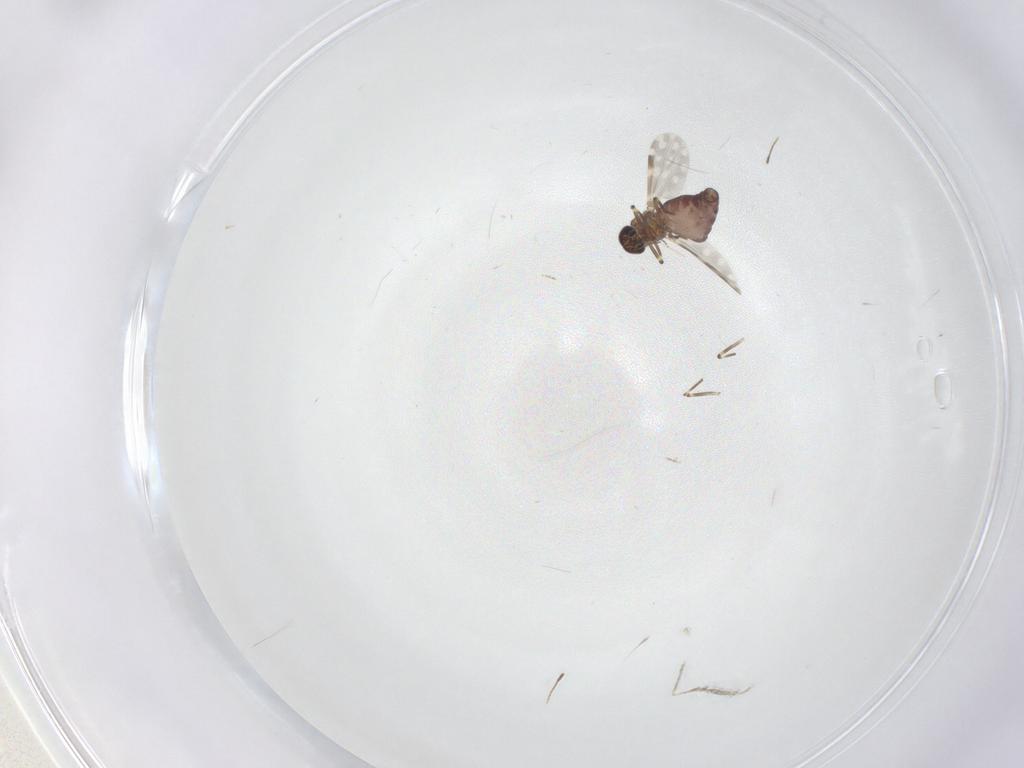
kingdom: Animalia
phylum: Arthropoda
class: Insecta
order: Diptera
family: Ceratopogonidae
